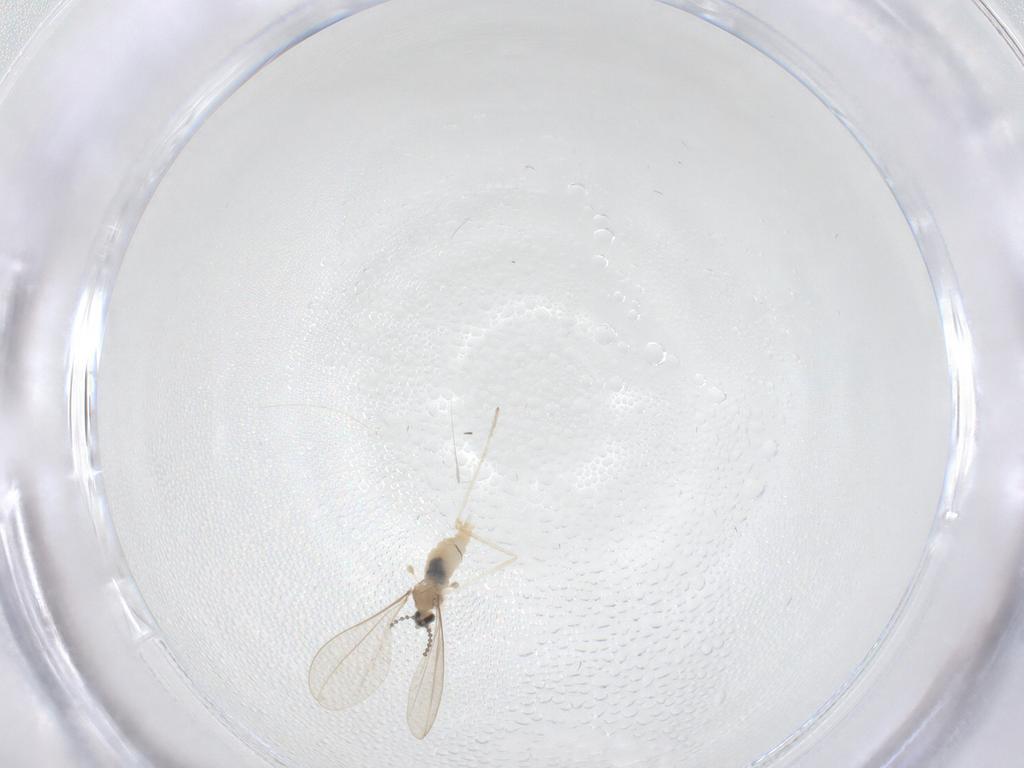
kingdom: Animalia
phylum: Arthropoda
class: Insecta
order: Diptera
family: Cecidomyiidae
